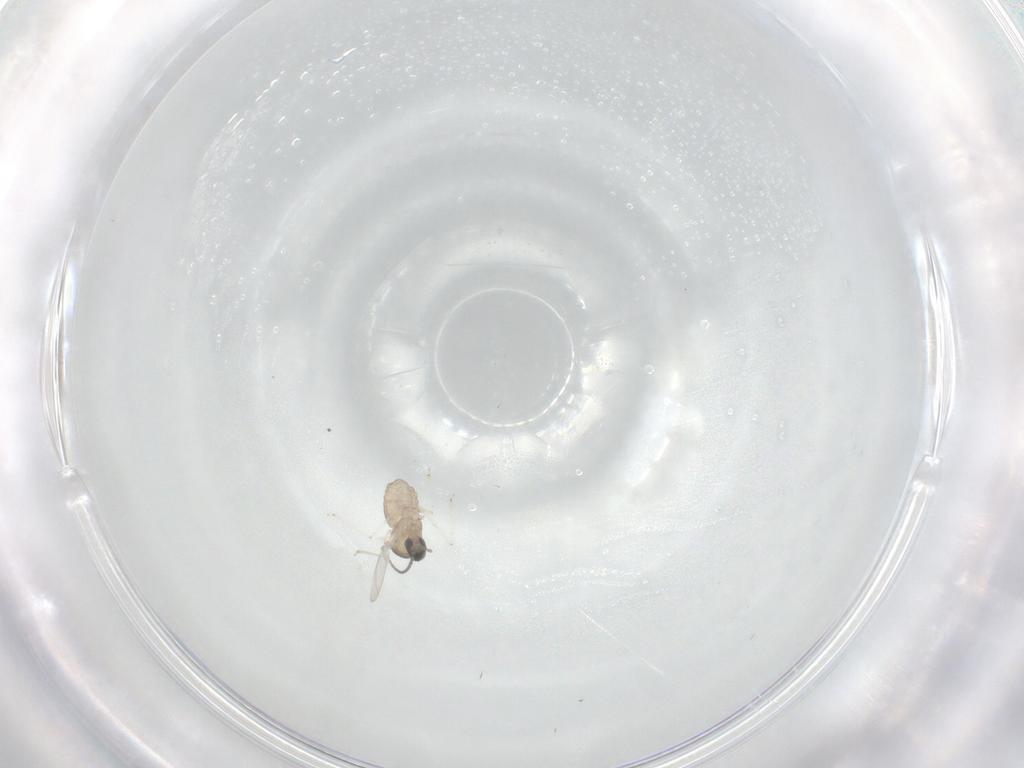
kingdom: Animalia
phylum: Arthropoda
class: Insecta
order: Diptera
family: Cecidomyiidae
